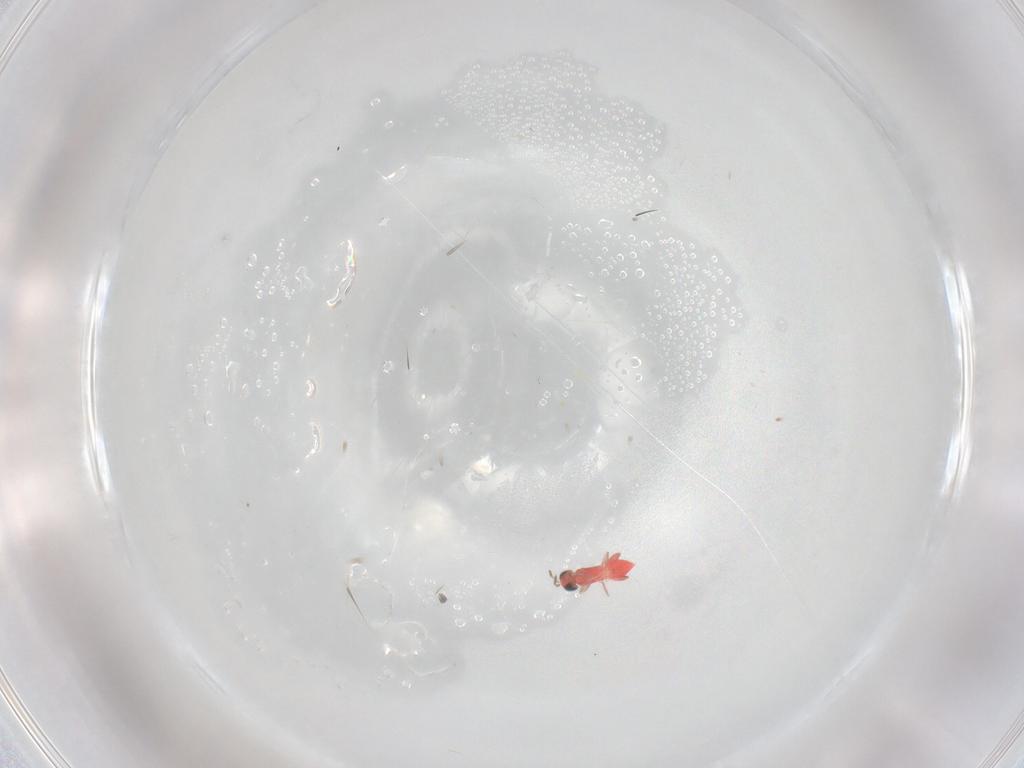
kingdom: Animalia
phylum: Arthropoda
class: Insecta
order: Hymenoptera
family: Trichogrammatidae
